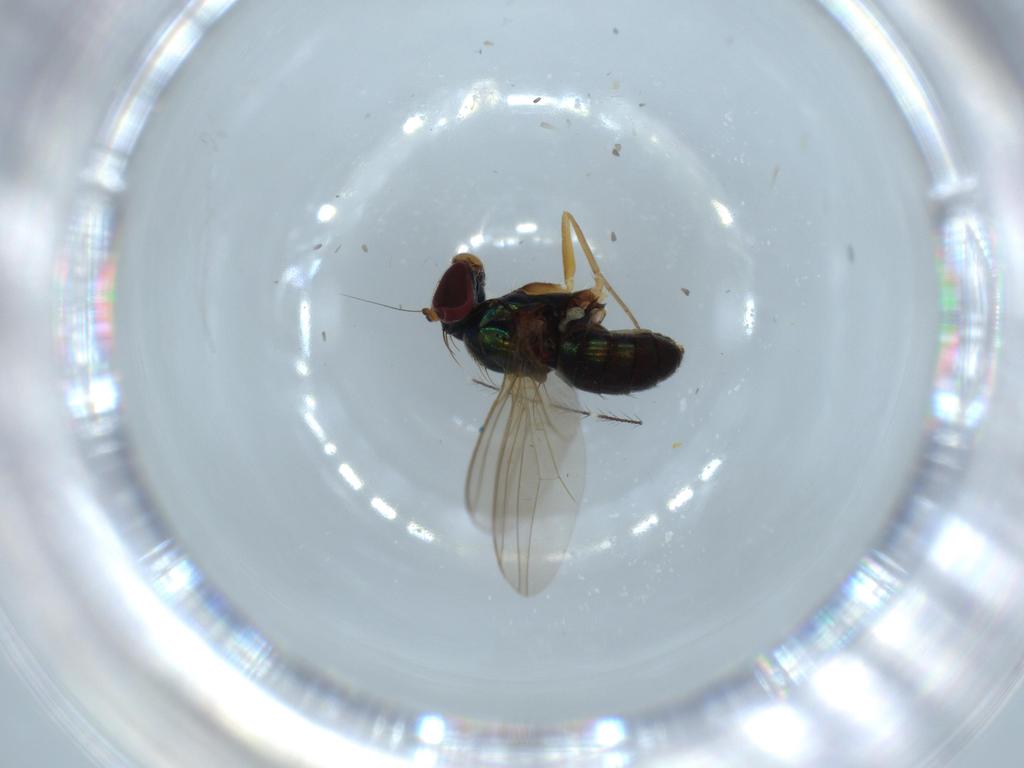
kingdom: Animalia
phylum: Arthropoda
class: Insecta
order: Diptera
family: Dolichopodidae
